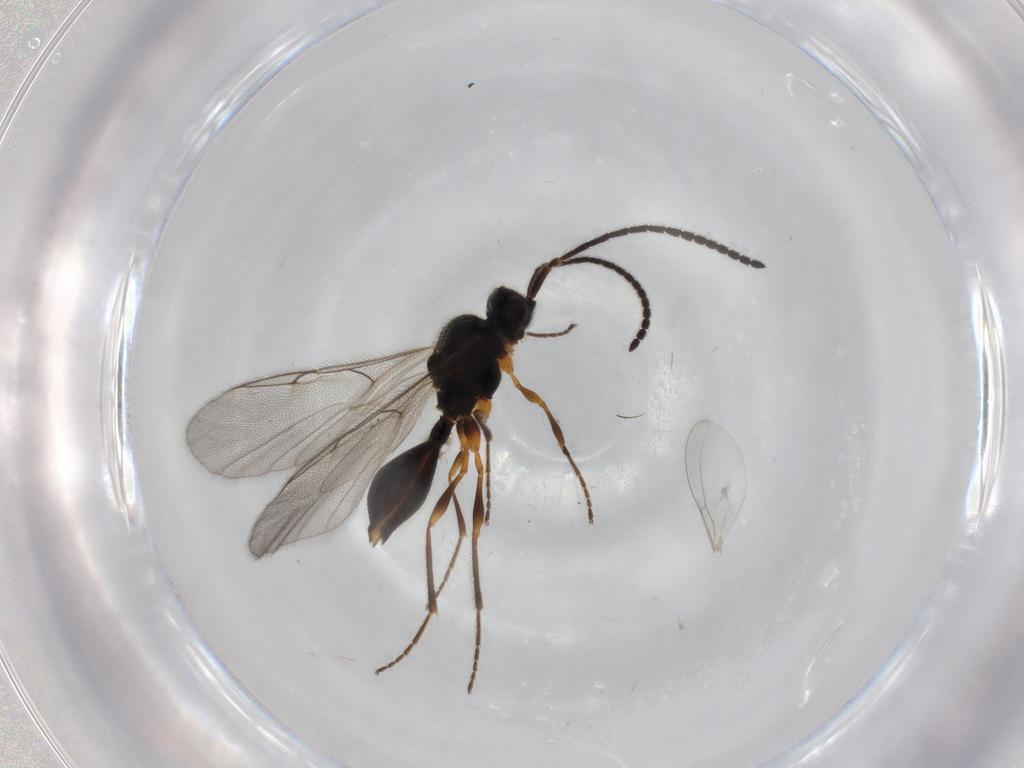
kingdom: Animalia
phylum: Arthropoda
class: Insecta
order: Hymenoptera
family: Diapriidae
